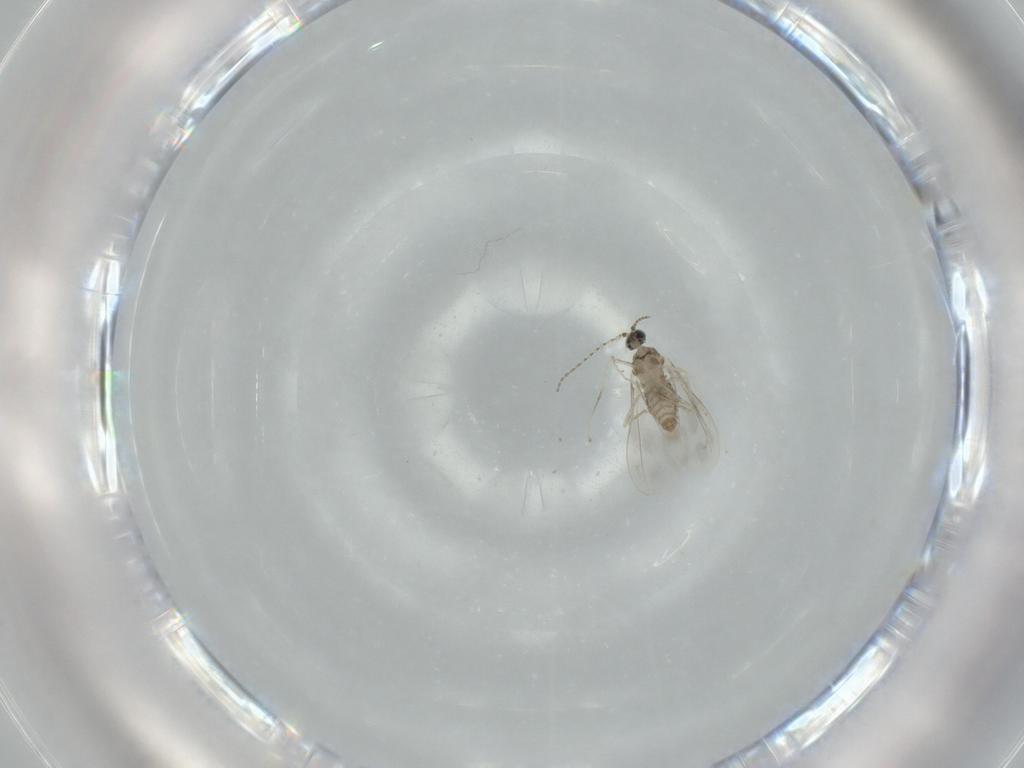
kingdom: Animalia
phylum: Arthropoda
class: Insecta
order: Diptera
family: Cecidomyiidae
